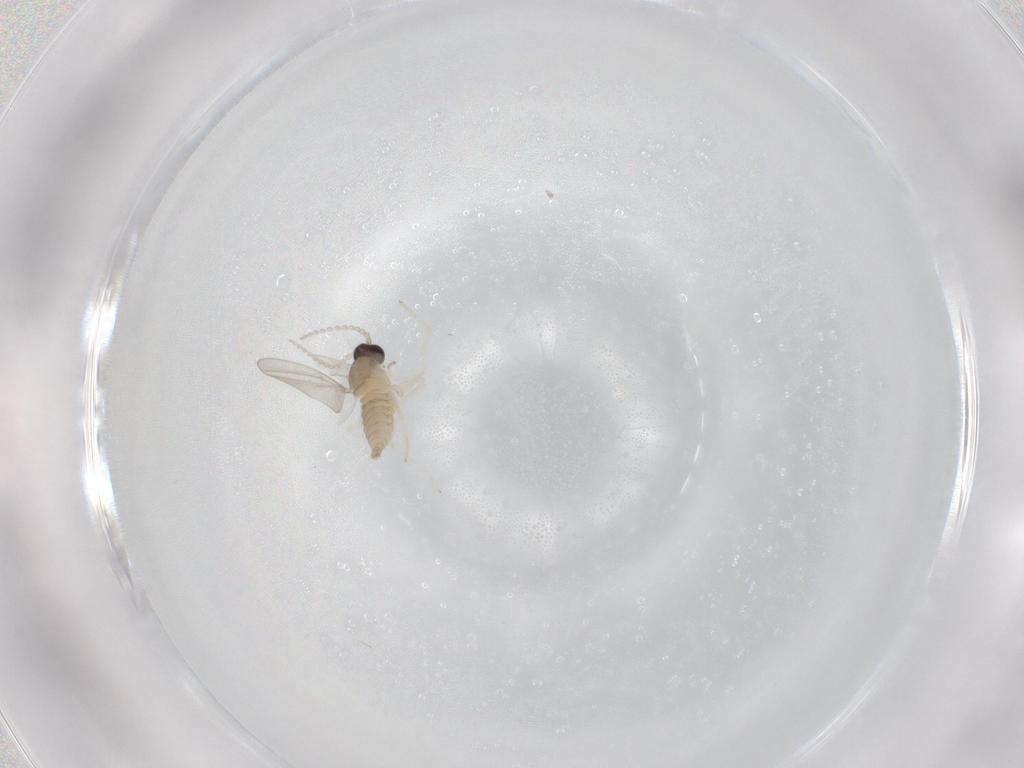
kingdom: Animalia
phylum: Arthropoda
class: Insecta
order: Diptera
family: Cecidomyiidae
